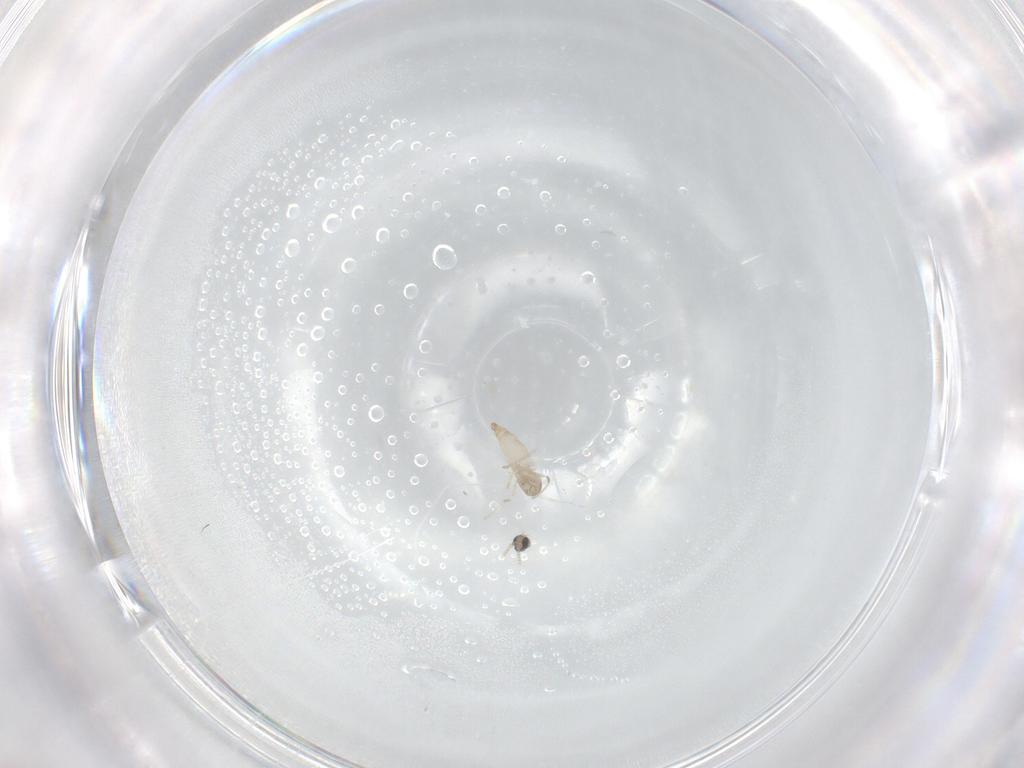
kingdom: Animalia
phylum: Arthropoda
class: Insecta
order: Diptera
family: Cecidomyiidae
